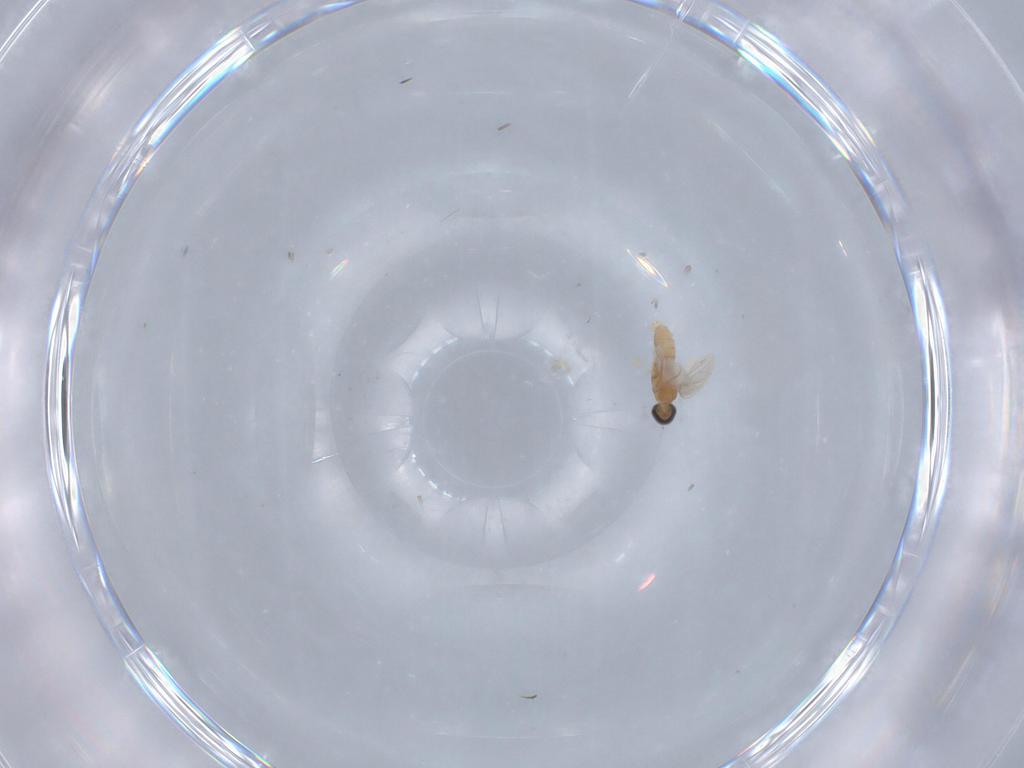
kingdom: Animalia
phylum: Arthropoda
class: Insecta
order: Diptera
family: Cecidomyiidae
